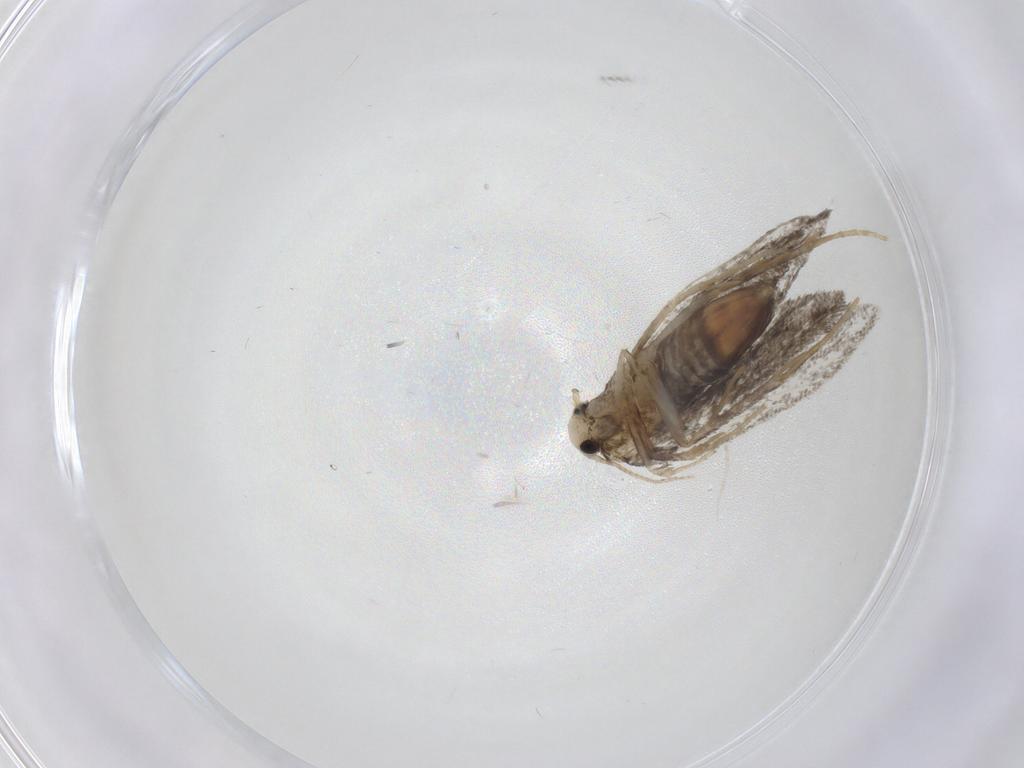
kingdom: Animalia
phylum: Arthropoda
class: Insecta
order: Lepidoptera
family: Psychidae
